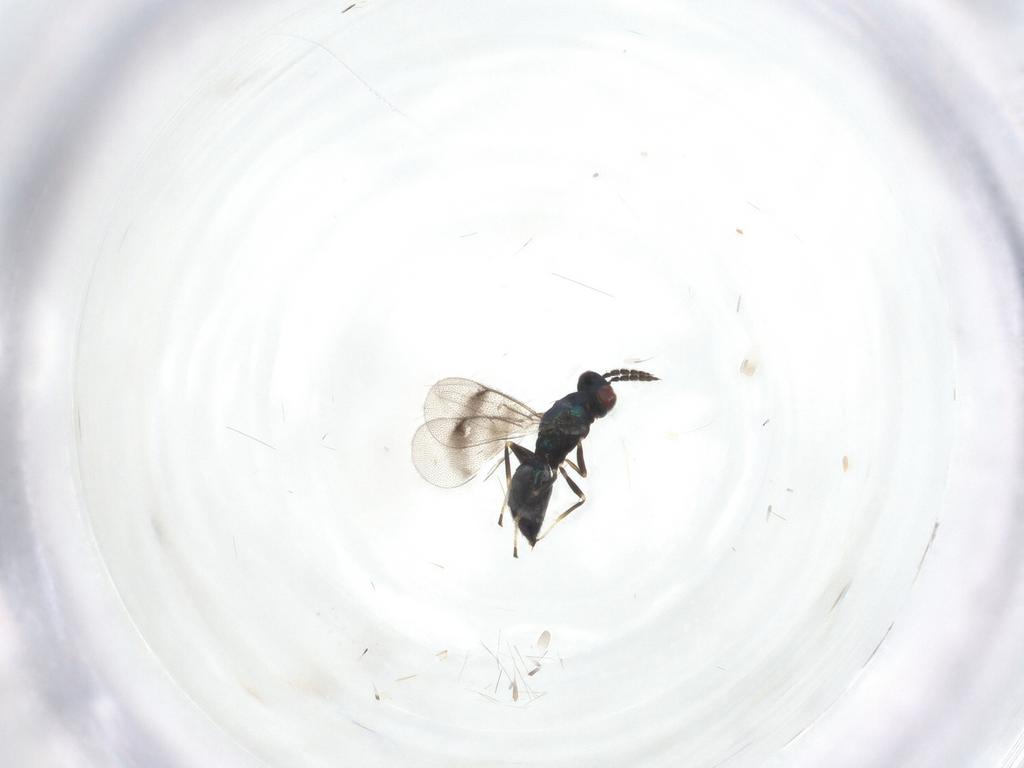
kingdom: Animalia
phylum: Arthropoda
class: Insecta
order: Hymenoptera
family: Eulophidae
